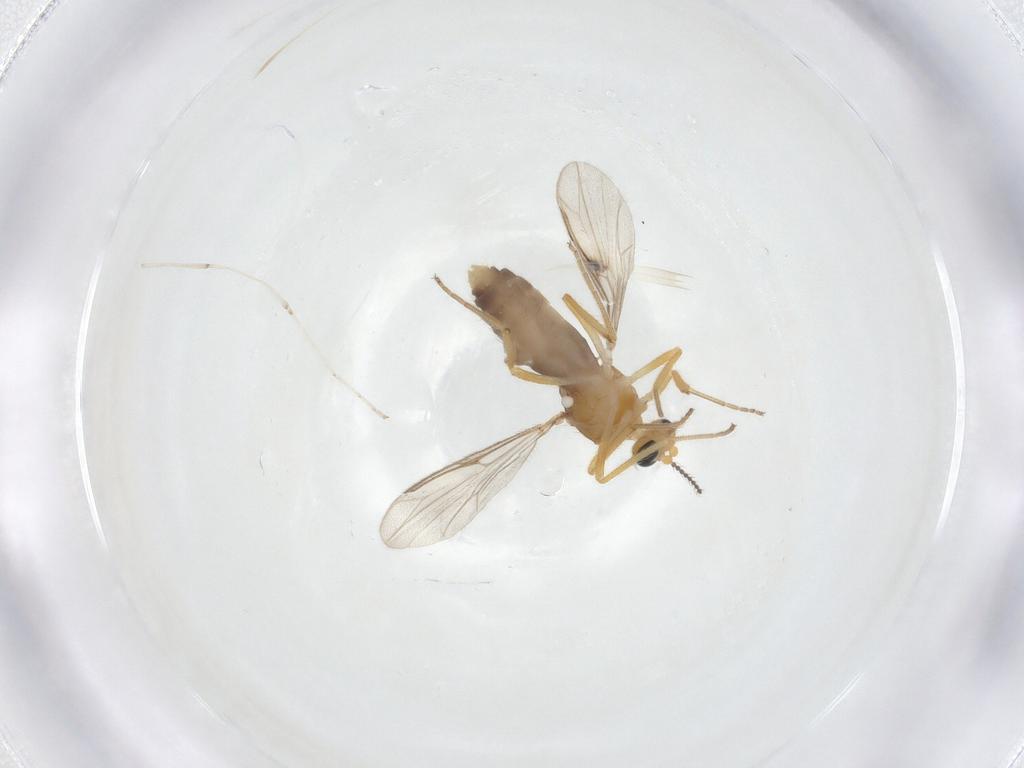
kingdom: Animalia
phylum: Arthropoda
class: Insecta
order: Diptera
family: Ceratopogonidae
